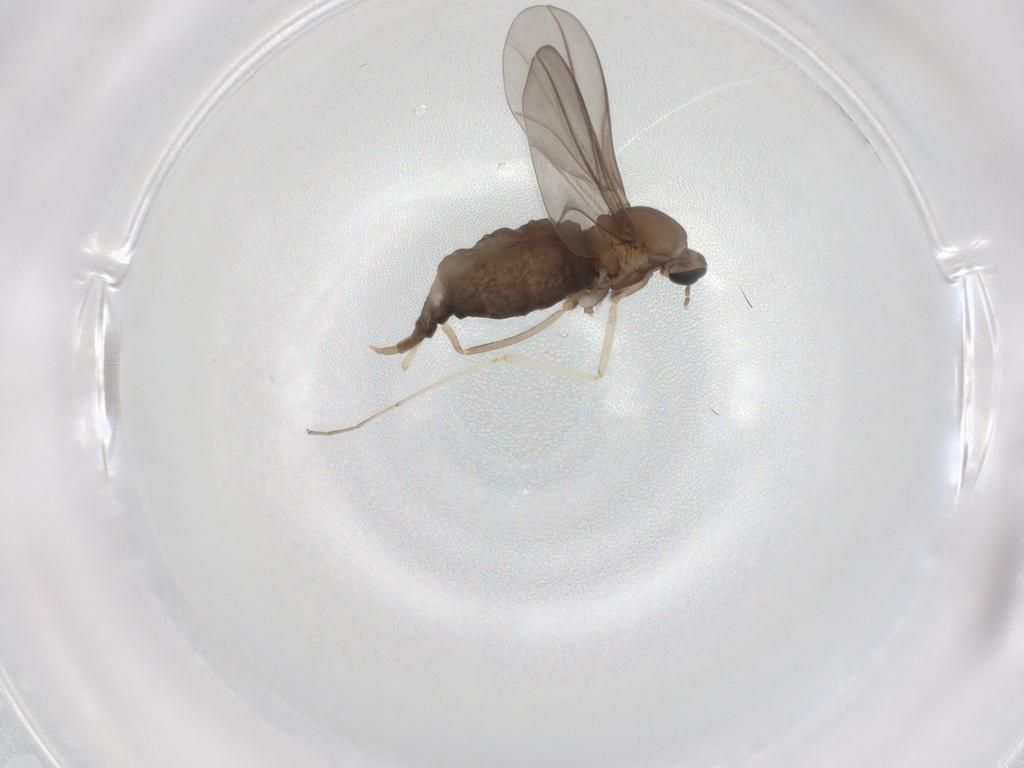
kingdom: Animalia
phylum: Arthropoda
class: Insecta
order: Diptera
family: Cecidomyiidae
